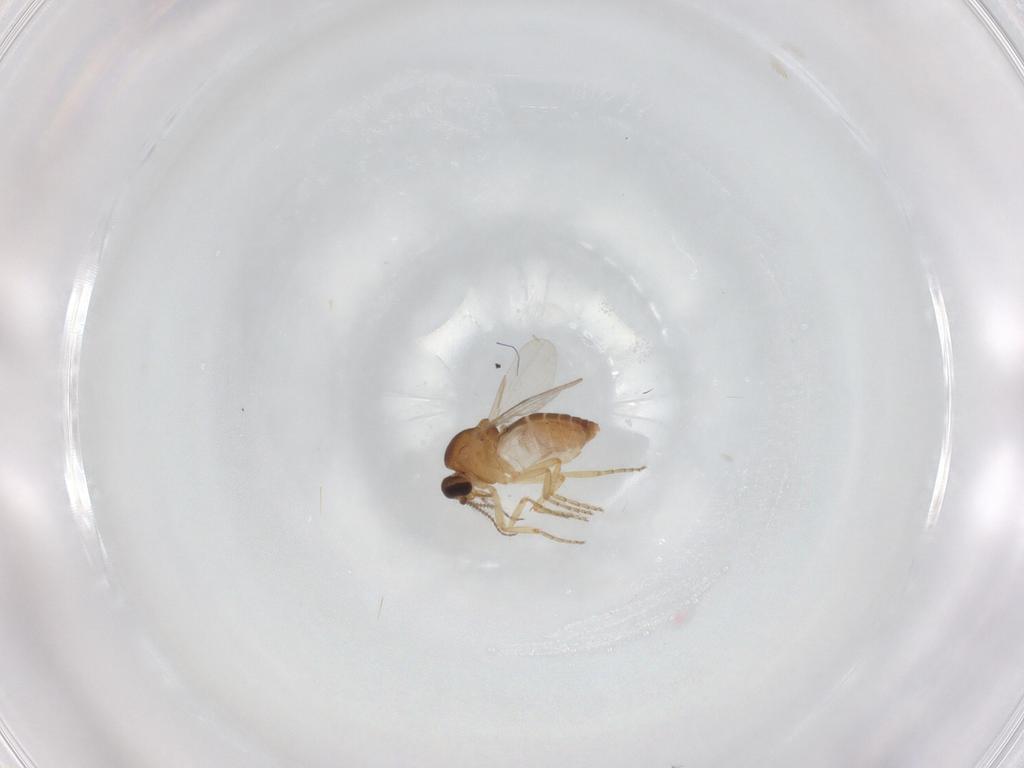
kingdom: Animalia
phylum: Arthropoda
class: Insecta
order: Diptera
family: Ceratopogonidae
